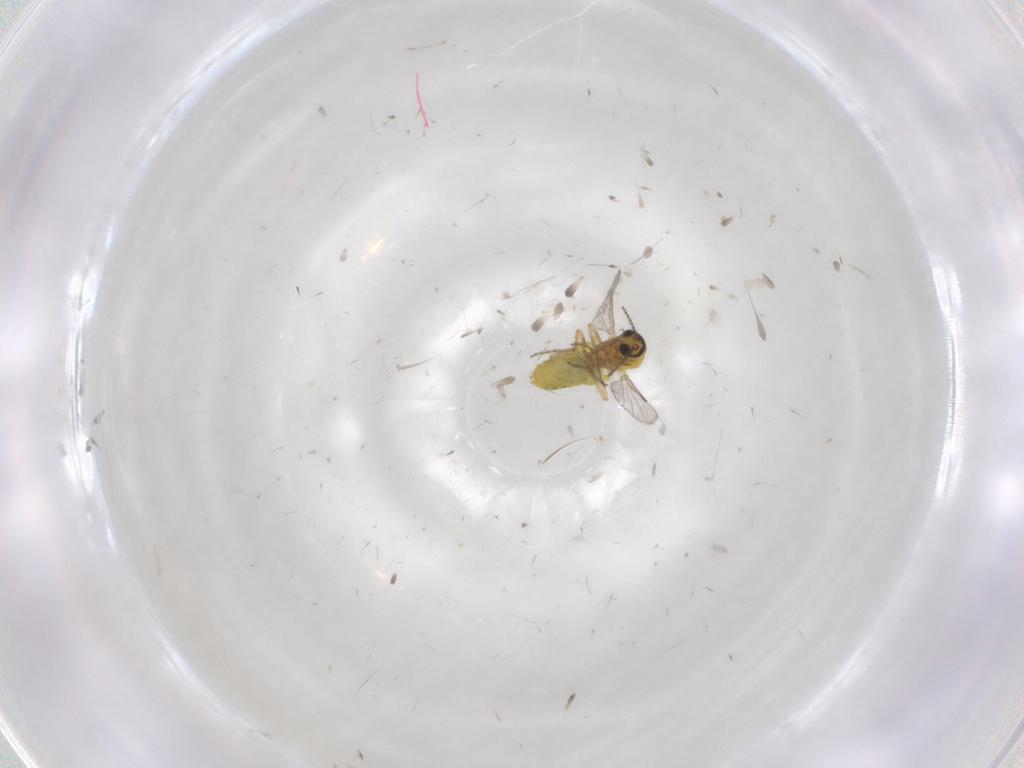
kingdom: Animalia
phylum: Arthropoda
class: Insecta
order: Diptera
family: Ceratopogonidae
